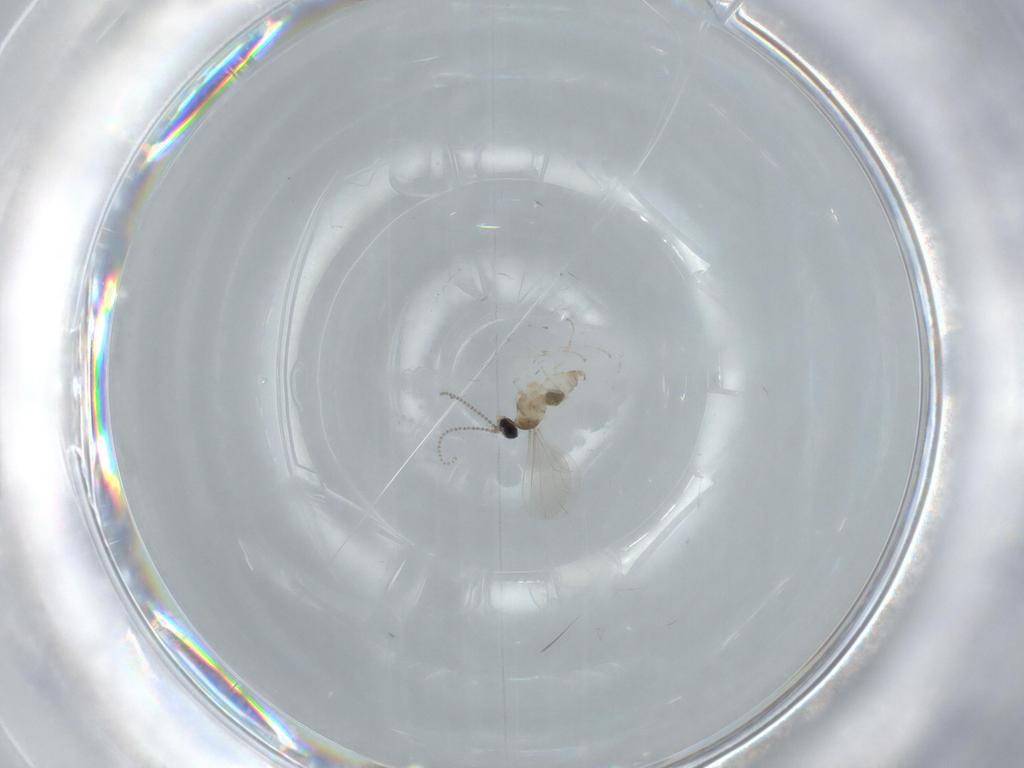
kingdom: Animalia
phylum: Arthropoda
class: Insecta
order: Diptera
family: Cecidomyiidae
